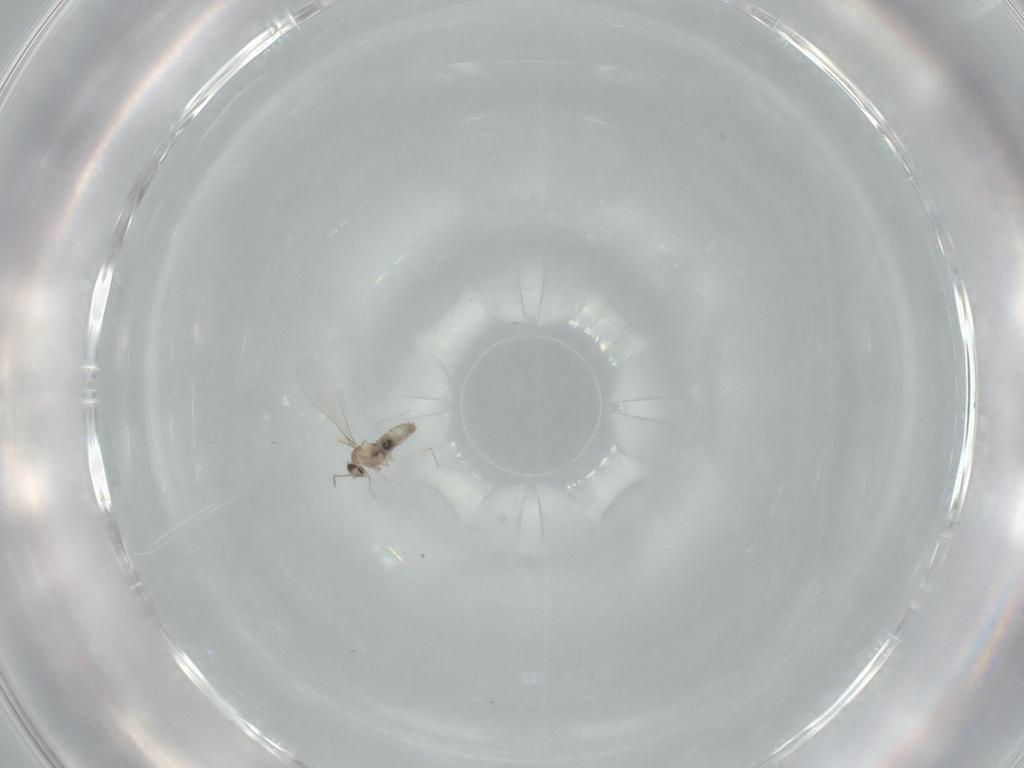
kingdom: Animalia
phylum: Arthropoda
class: Insecta
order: Diptera
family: Cecidomyiidae
